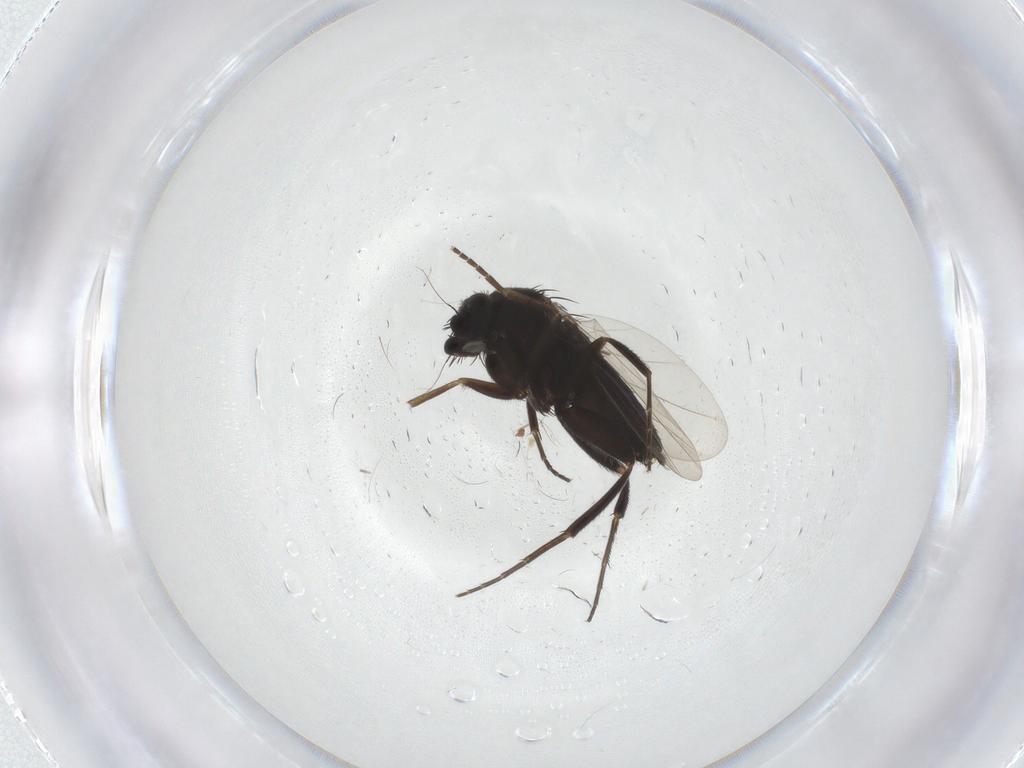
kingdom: Animalia
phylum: Arthropoda
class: Insecta
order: Diptera
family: Phoridae
